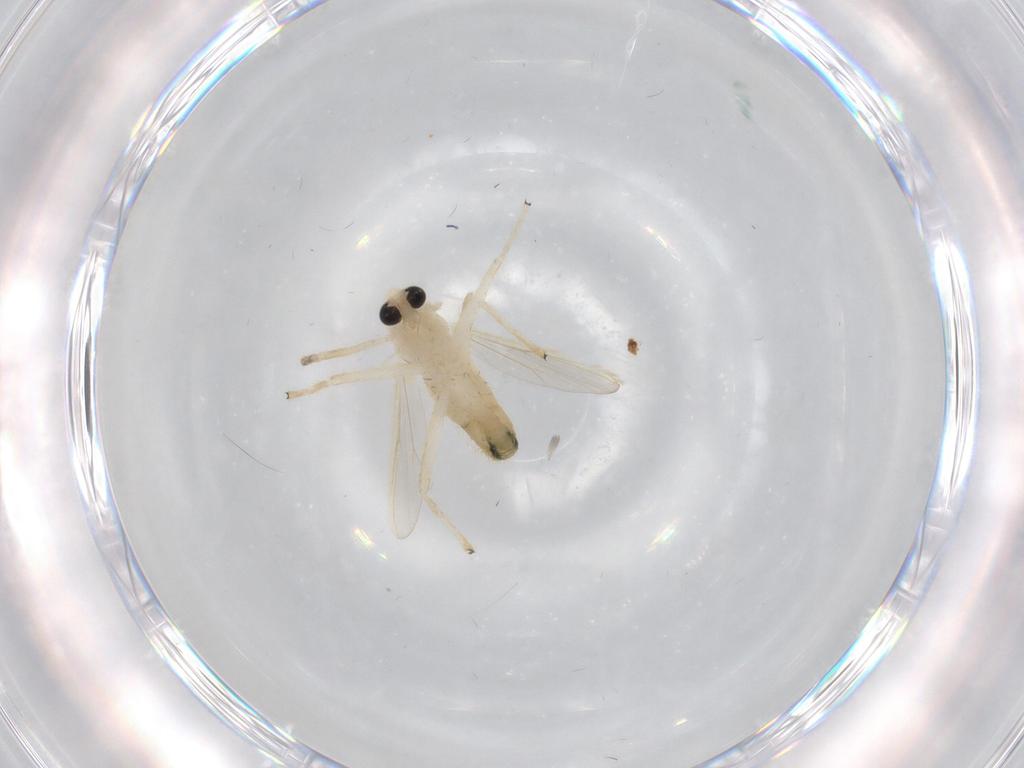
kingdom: Animalia
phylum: Arthropoda
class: Insecta
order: Diptera
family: Chironomidae
